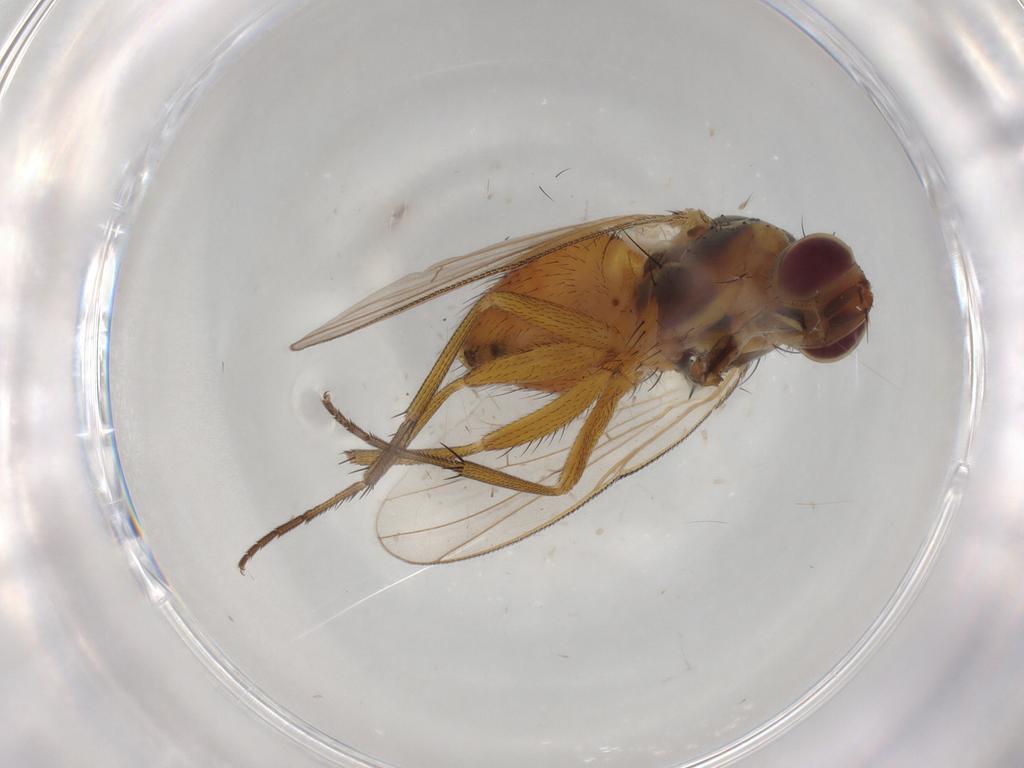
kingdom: Animalia
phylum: Arthropoda
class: Insecta
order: Diptera
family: Muscidae
